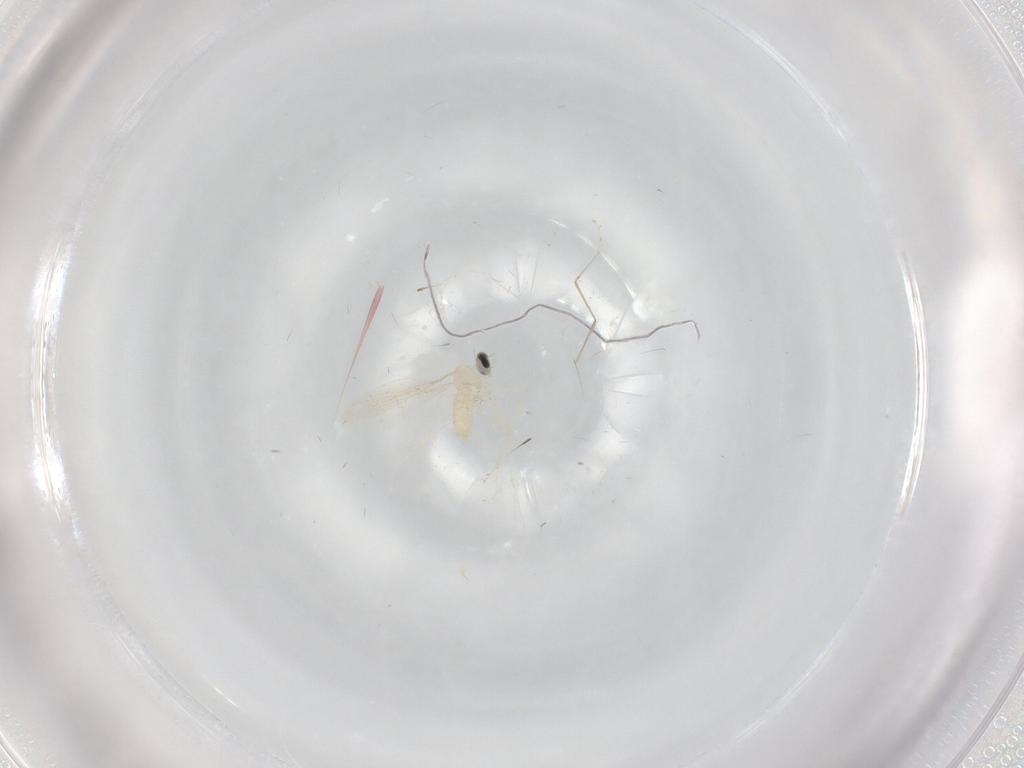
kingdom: Animalia
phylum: Arthropoda
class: Insecta
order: Diptera
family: Cecidomyiidae
